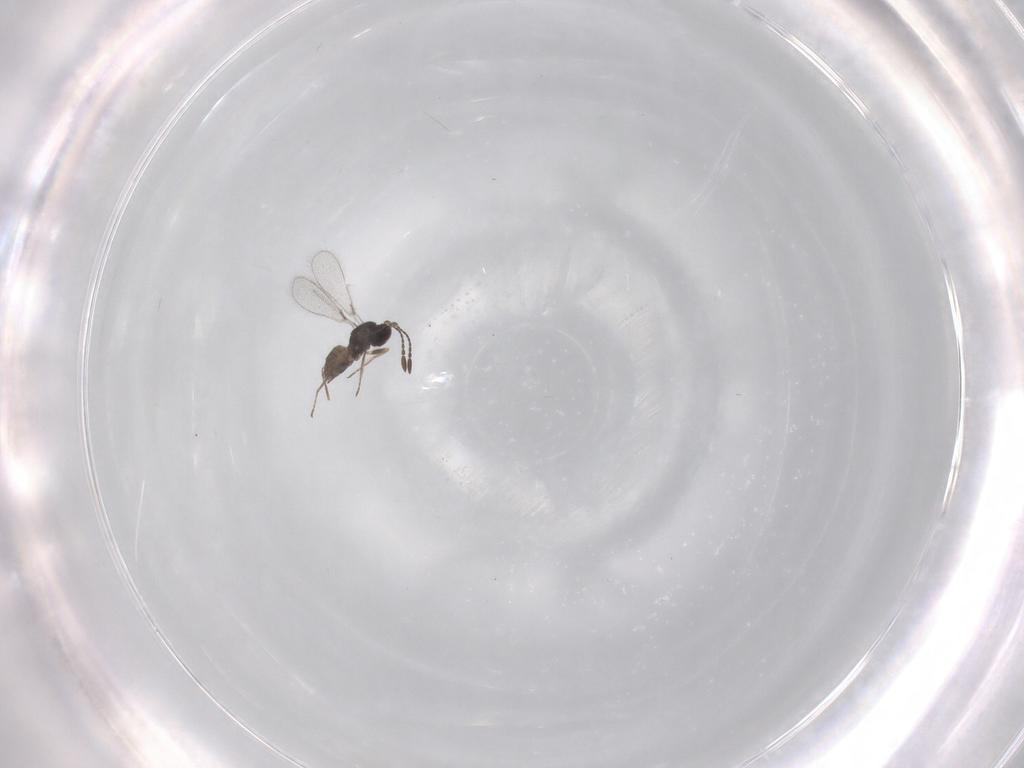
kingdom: Animalia
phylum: Arthropoda
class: Insecta
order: Hymenoptera
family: Mymaridae
